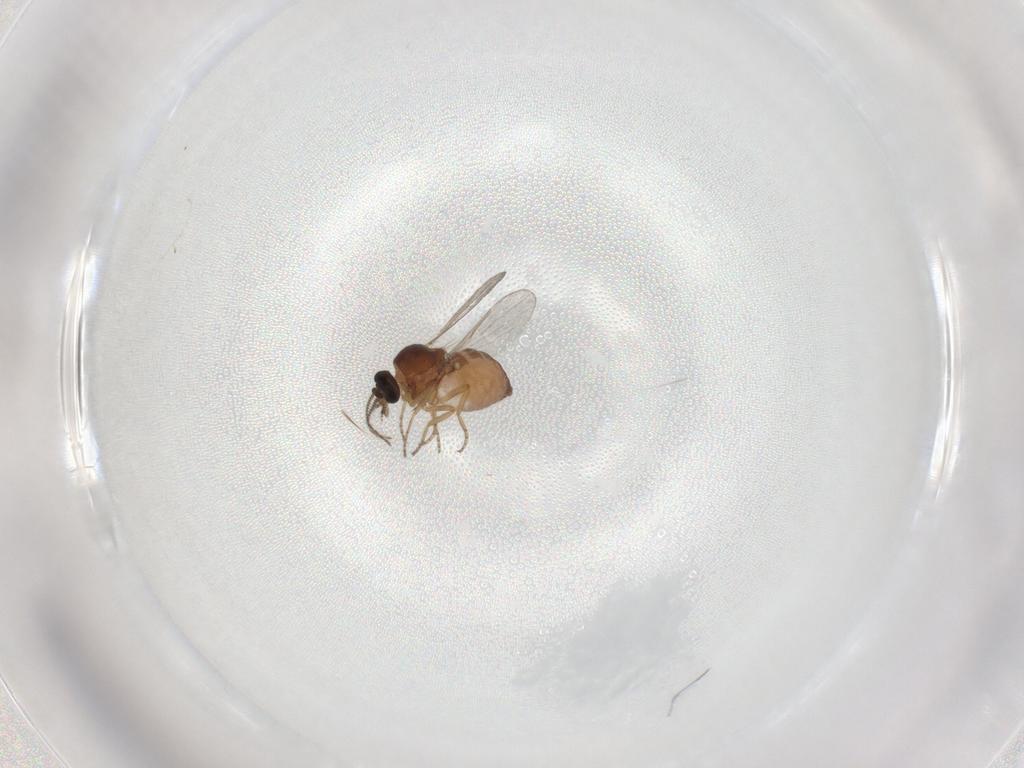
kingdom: Animalia
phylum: Arthropoda
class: Insecta
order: Diptera
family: Ceratopogonidae
